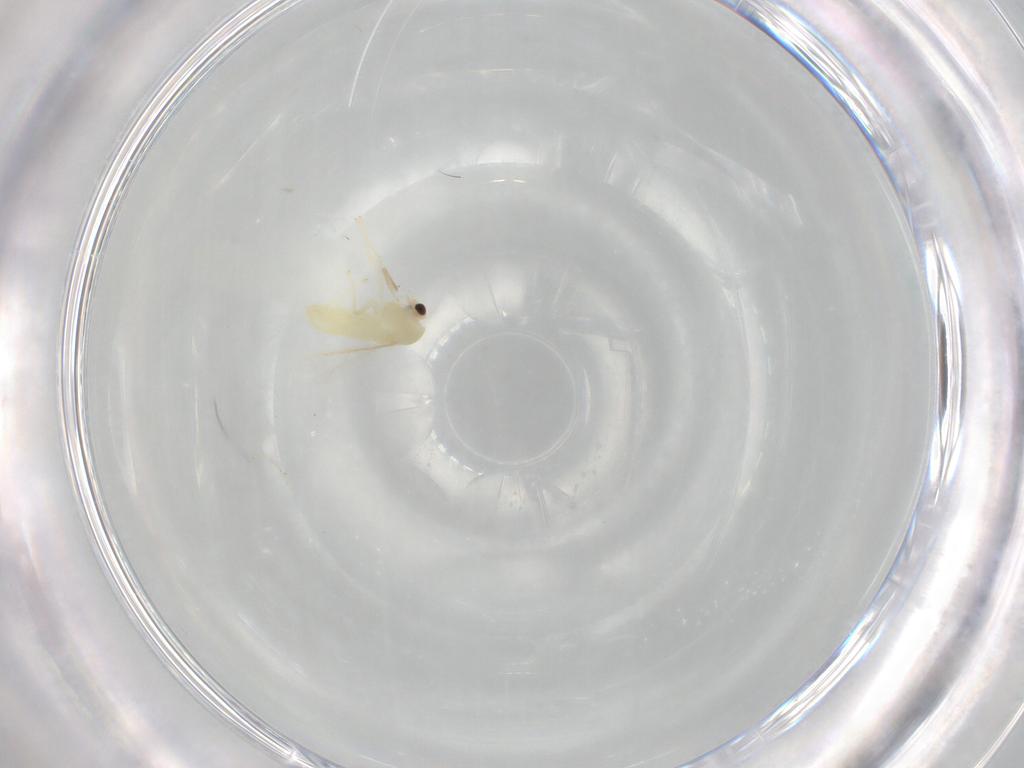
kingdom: Animalia
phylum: Arthropoda
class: Insecta
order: Diptera
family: Chironomidae
